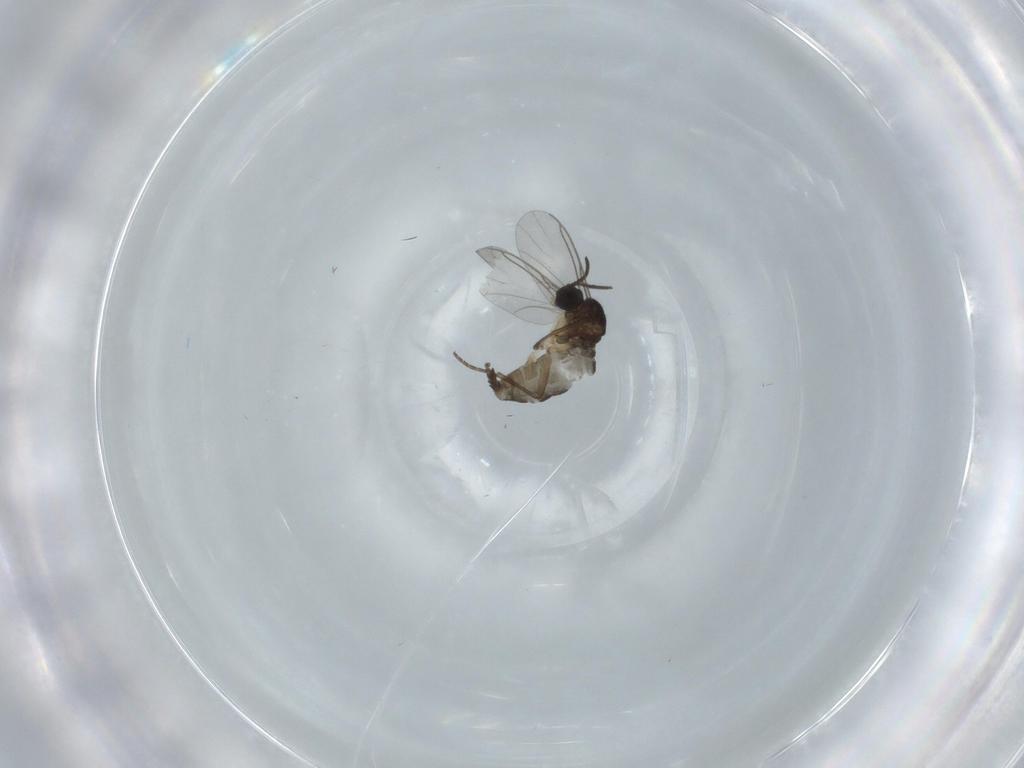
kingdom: Animalia
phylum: Arthropoda
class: Insecta
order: Diptera
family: Sciaridae
